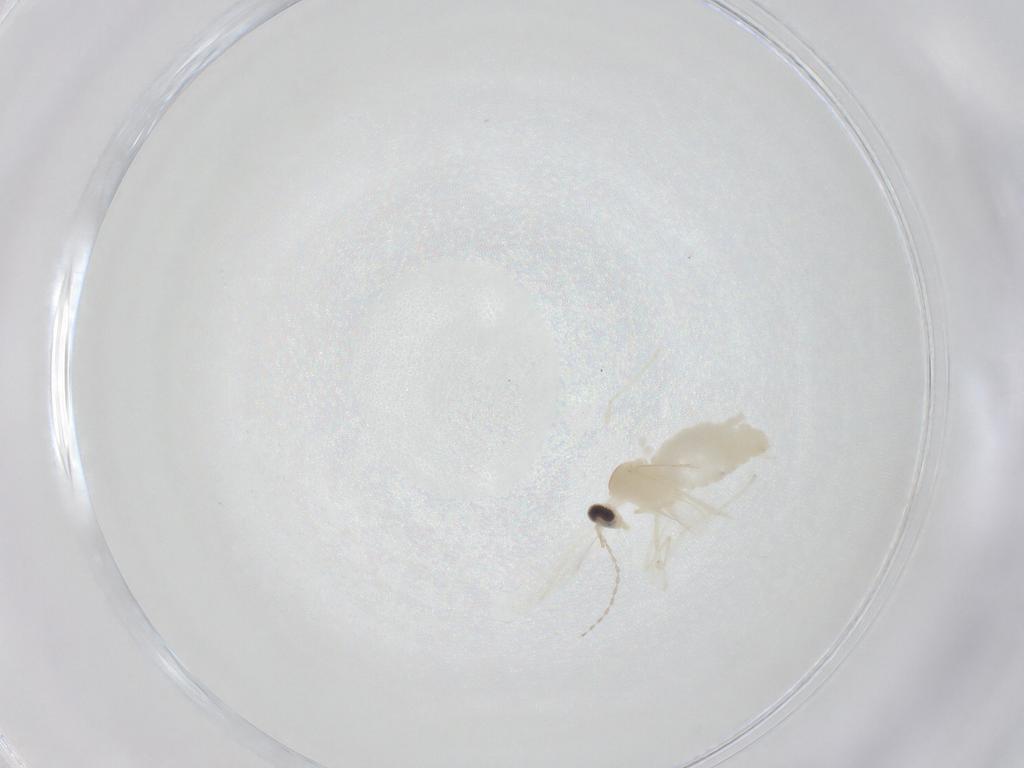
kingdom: Animalia
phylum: Arthropoda
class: Insecta
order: Diptera
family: Cecidomyiidae
